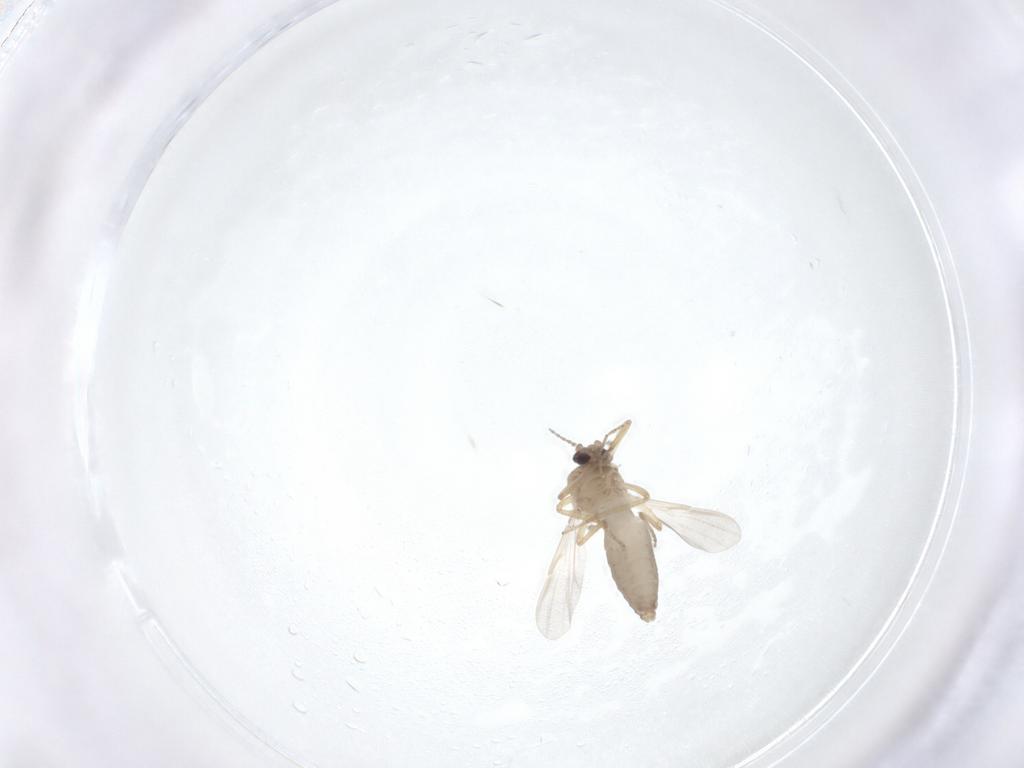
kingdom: Animalia
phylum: Arthropoda
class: Insecta
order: Diptera
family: Ceratopogonidae
